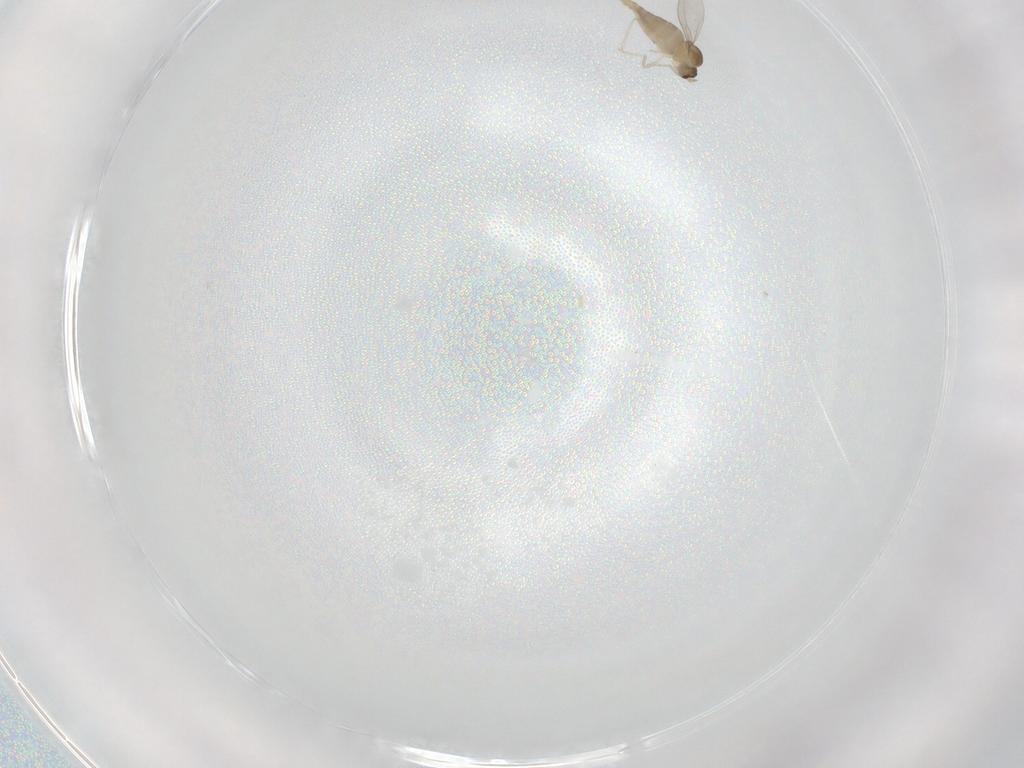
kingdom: Animalia
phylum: Arthropoda
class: Insecta
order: Diptera
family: Cecidomyiidae
